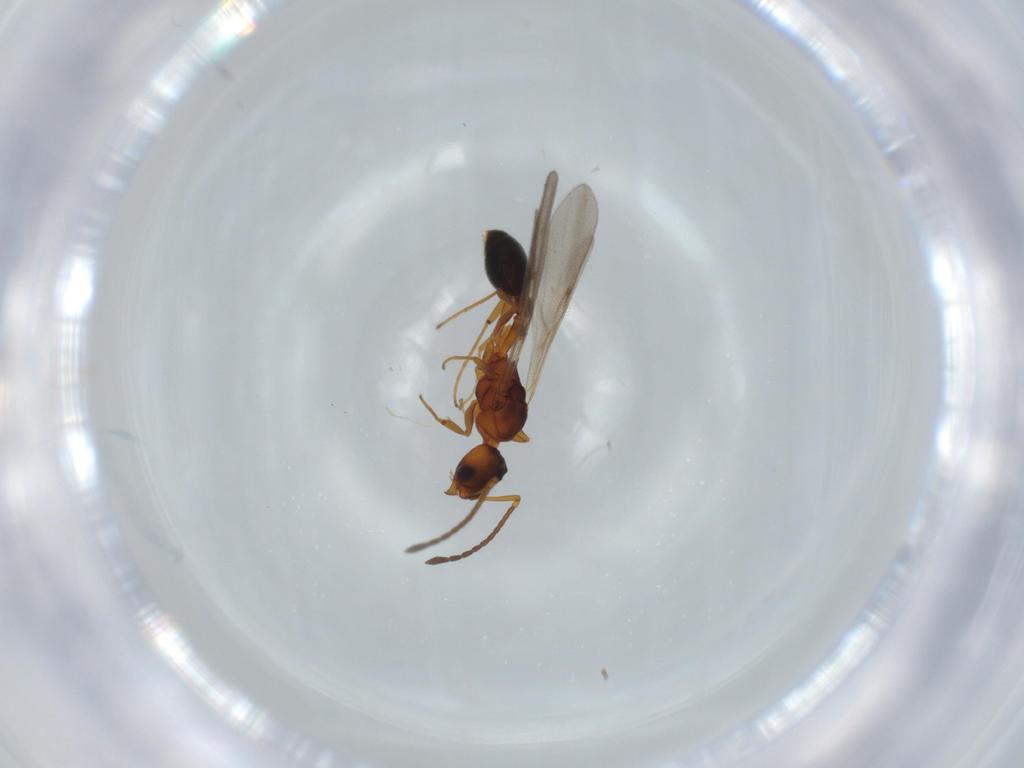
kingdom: Animalia
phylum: Arthropoda
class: Insecta
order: Hymenoptera
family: Formicidae
